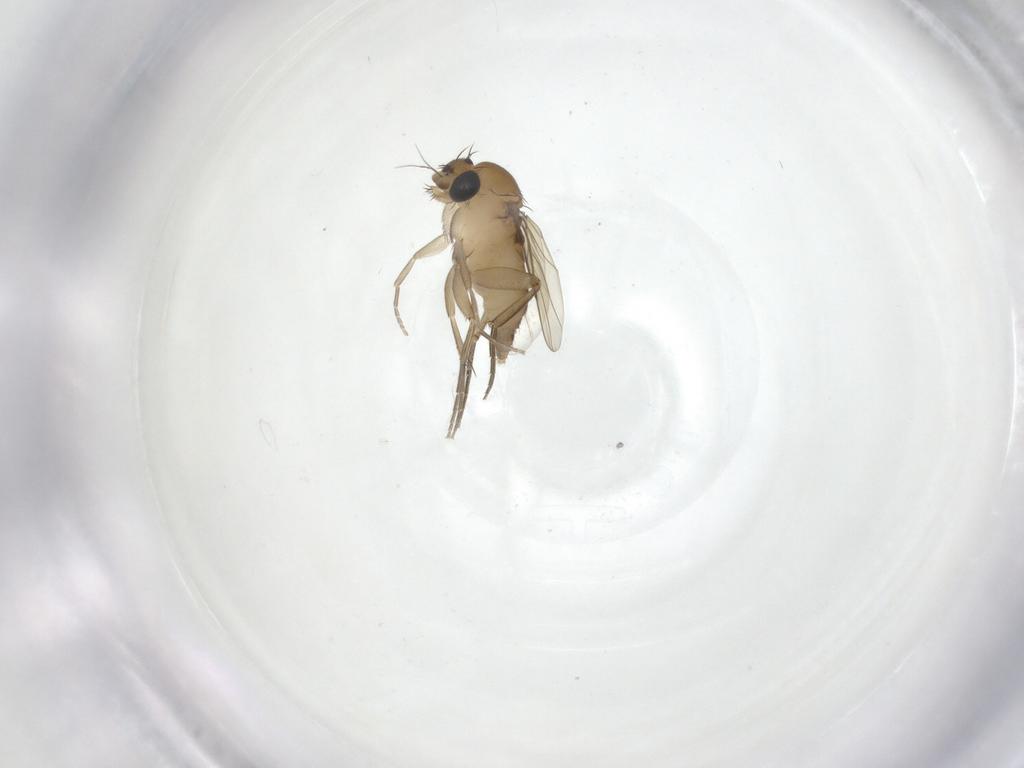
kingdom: Animalia
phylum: Arthropoda
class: Insecta
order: Diptera
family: Phoridae
